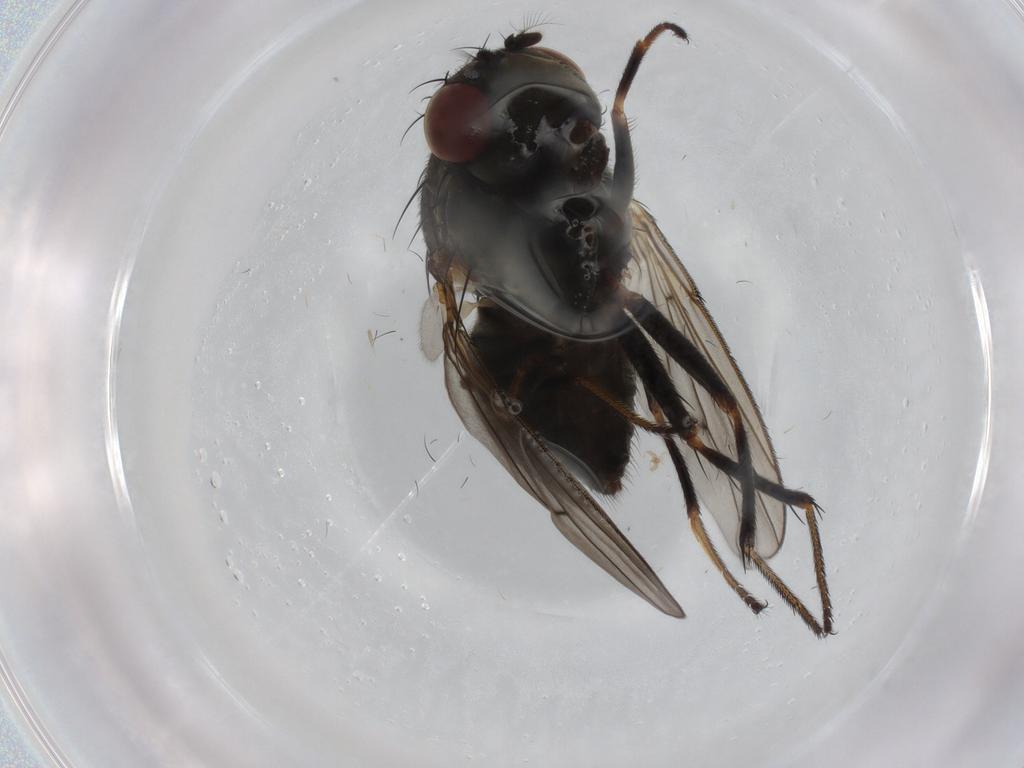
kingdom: Animalia
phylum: Arthropoda
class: Insecta
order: Diptera
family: Ephydridae
